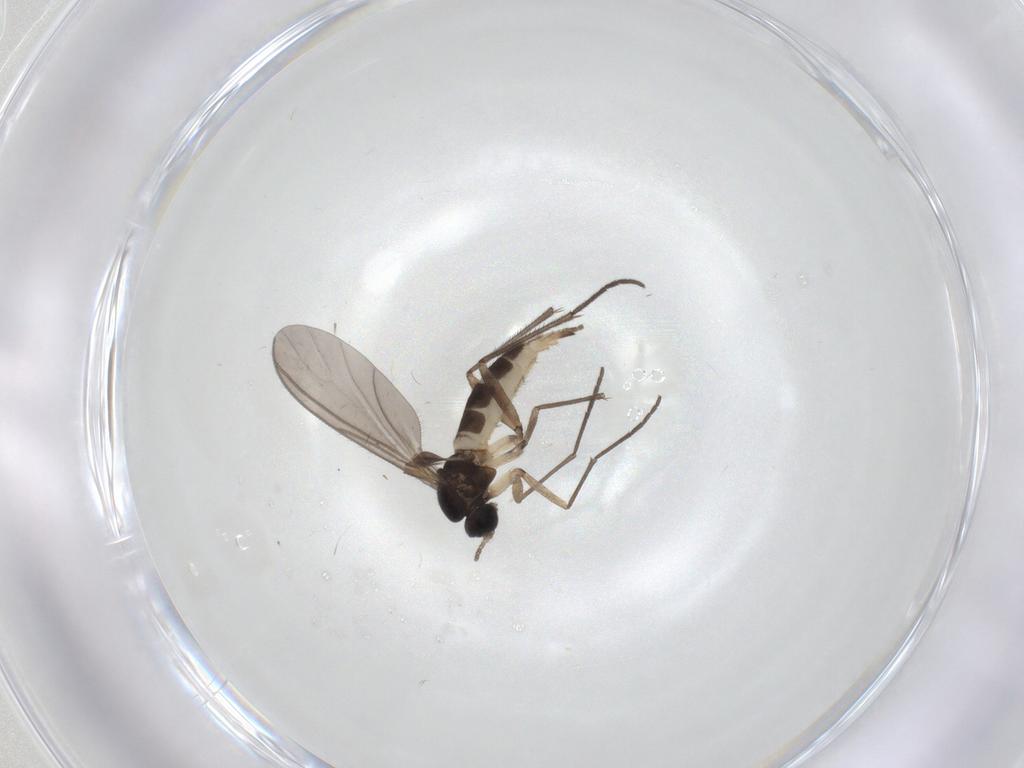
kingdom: Animalia
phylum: Arthropoda
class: Insecta
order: Diptera
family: Sciaridae
